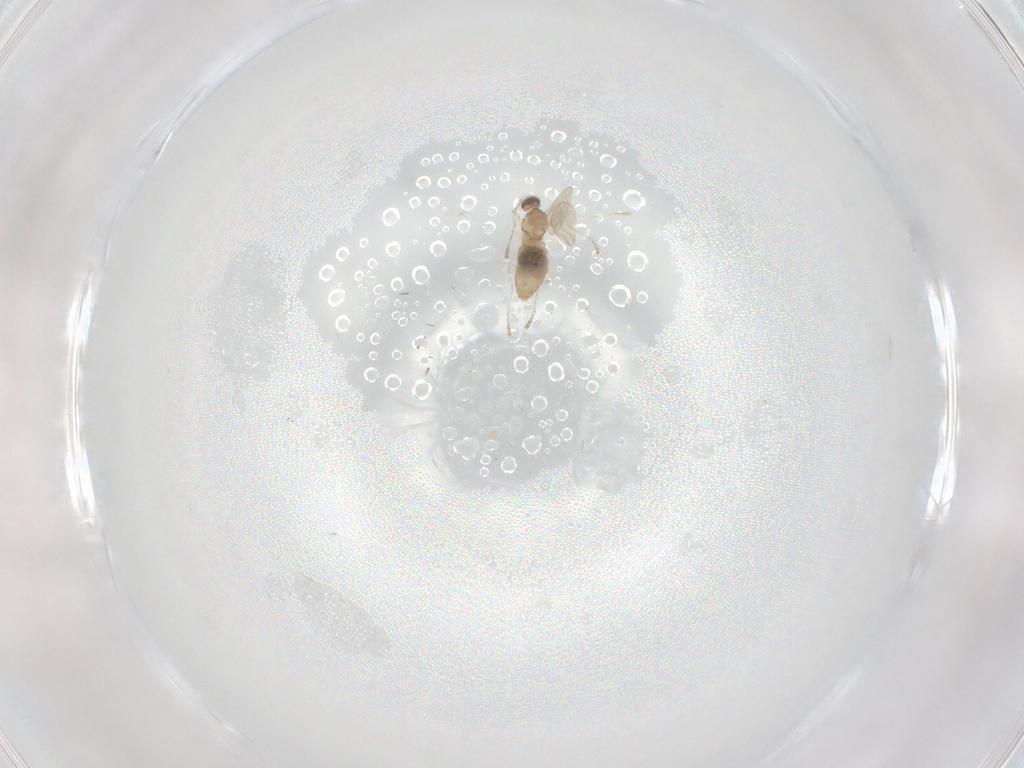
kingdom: Animalia
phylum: Arthropoda
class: Insecta
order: Diptera
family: Cecidomyiidae
